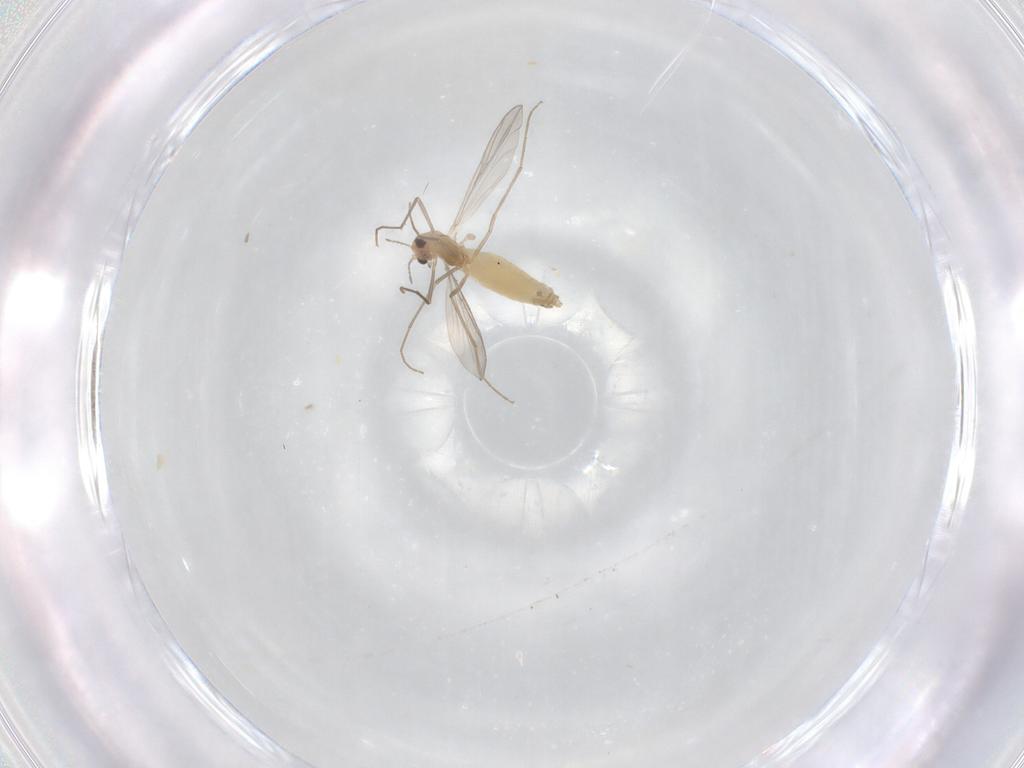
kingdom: Animalia
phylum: Arthropoda
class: Insecta
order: Diptera
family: Chironomidae
